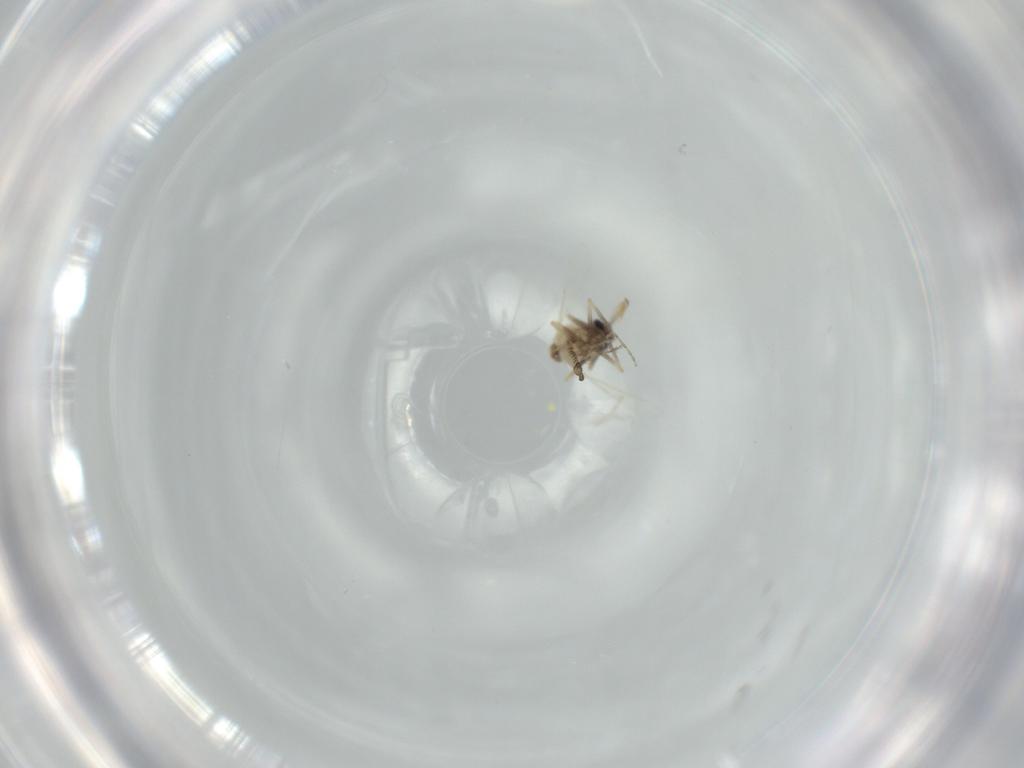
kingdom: Animalia
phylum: Arthropoda
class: Insecta
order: Diptera
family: Ceratopogonidae
